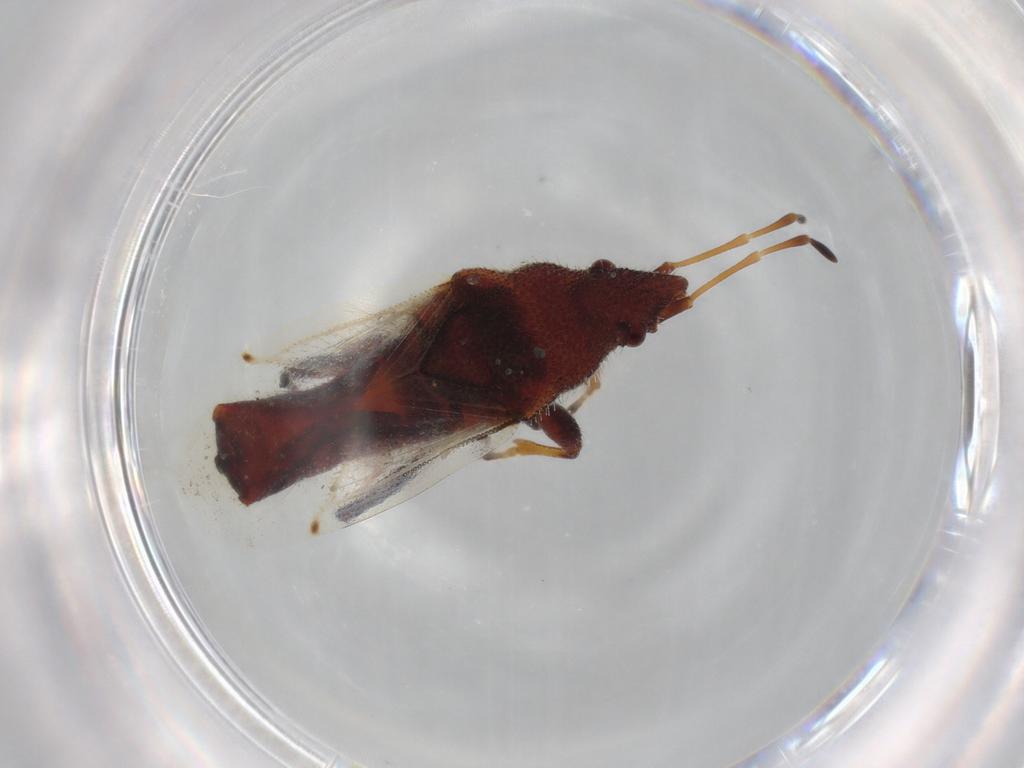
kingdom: Animalia
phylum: Arthropoda
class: Insecta
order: Hemiptera
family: Oxycarenidae
